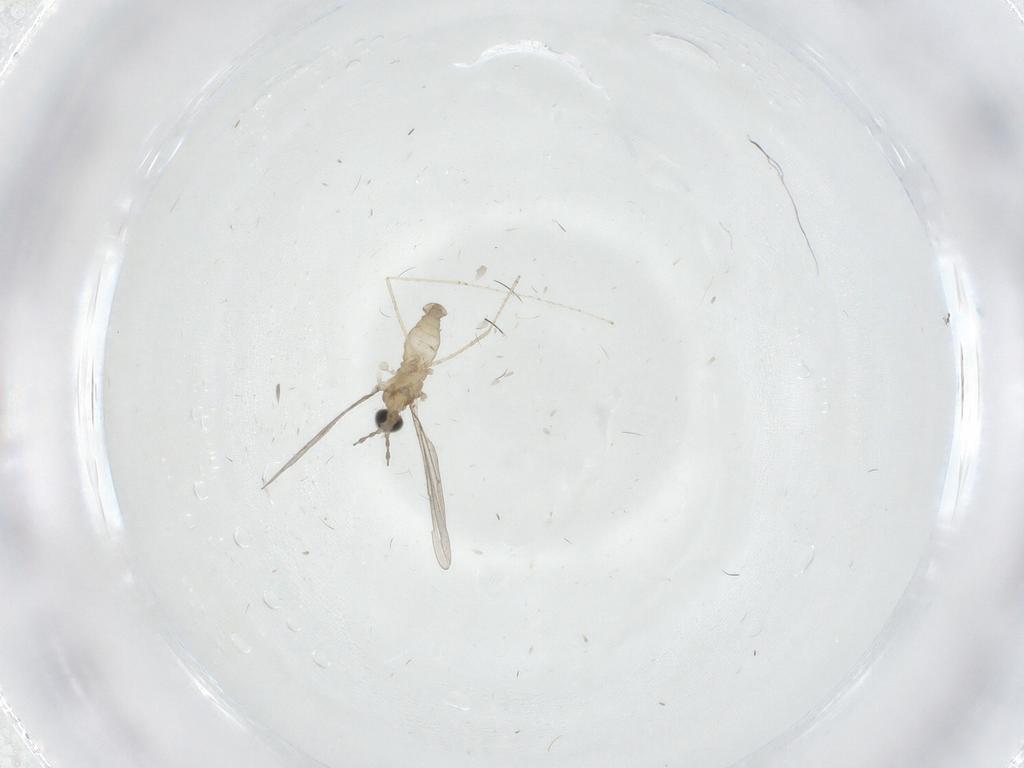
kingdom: Animalia
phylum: Arthropoda
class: Insecta
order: Diptera
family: Cecidomyiidae
